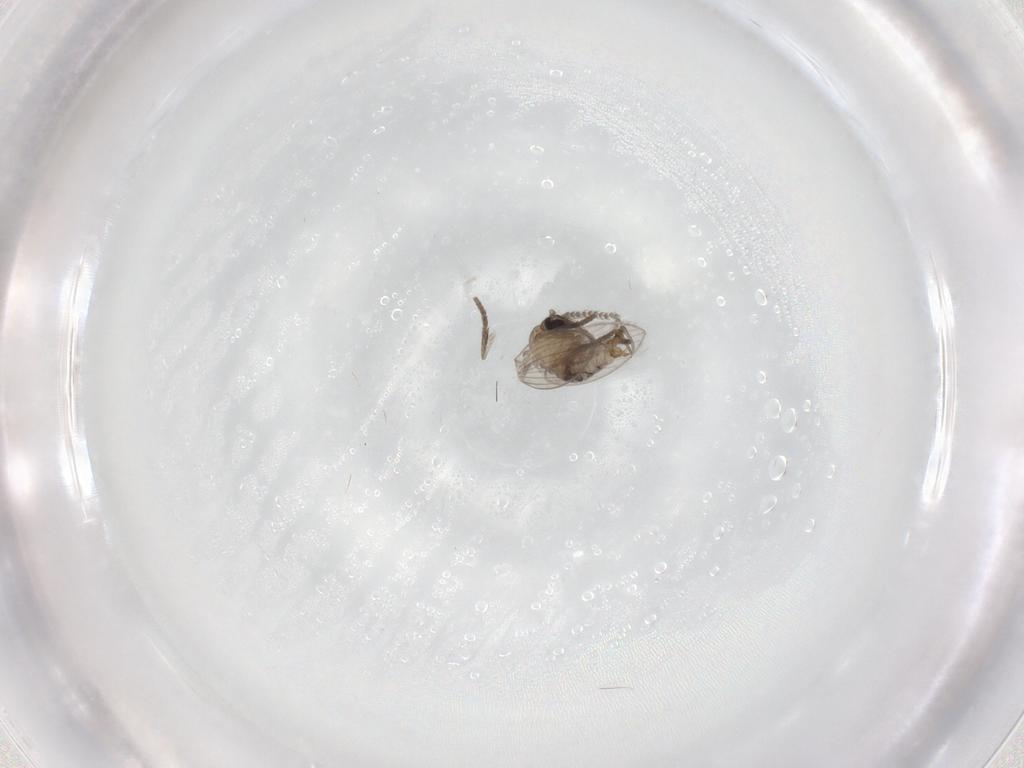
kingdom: Animalia
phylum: Arthropoda
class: Insecta
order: Diptera
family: Psychodidae
